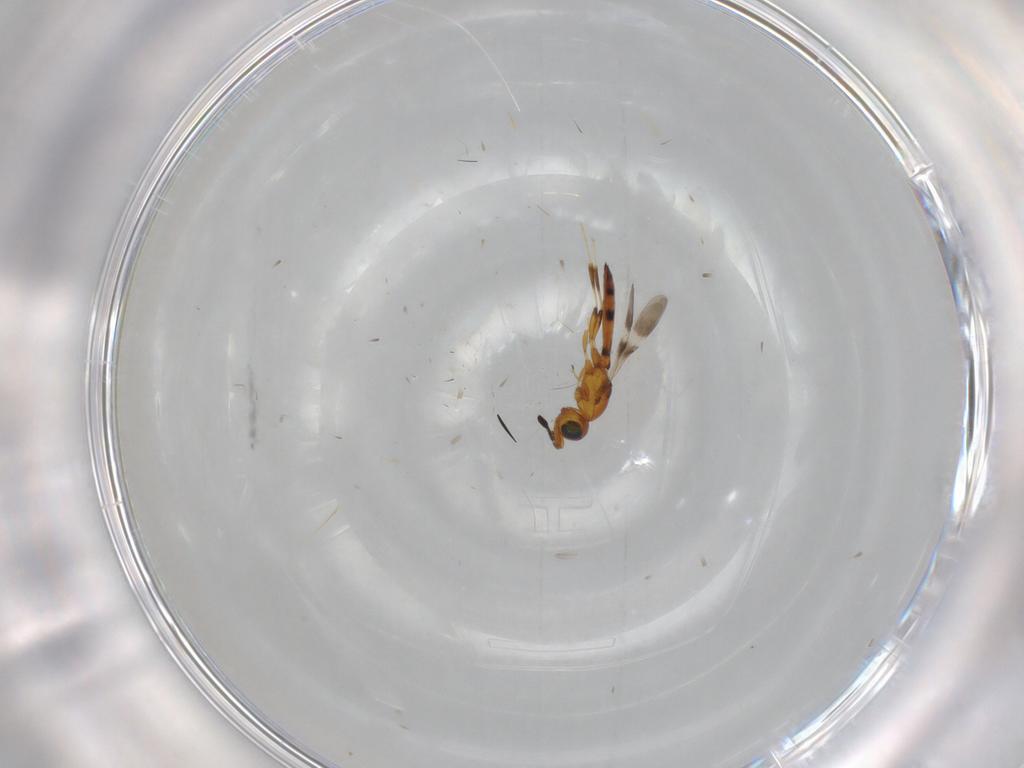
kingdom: Animalia
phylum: Arthropoda
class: Insecta
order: Hymenoptera
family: Scelionidae
